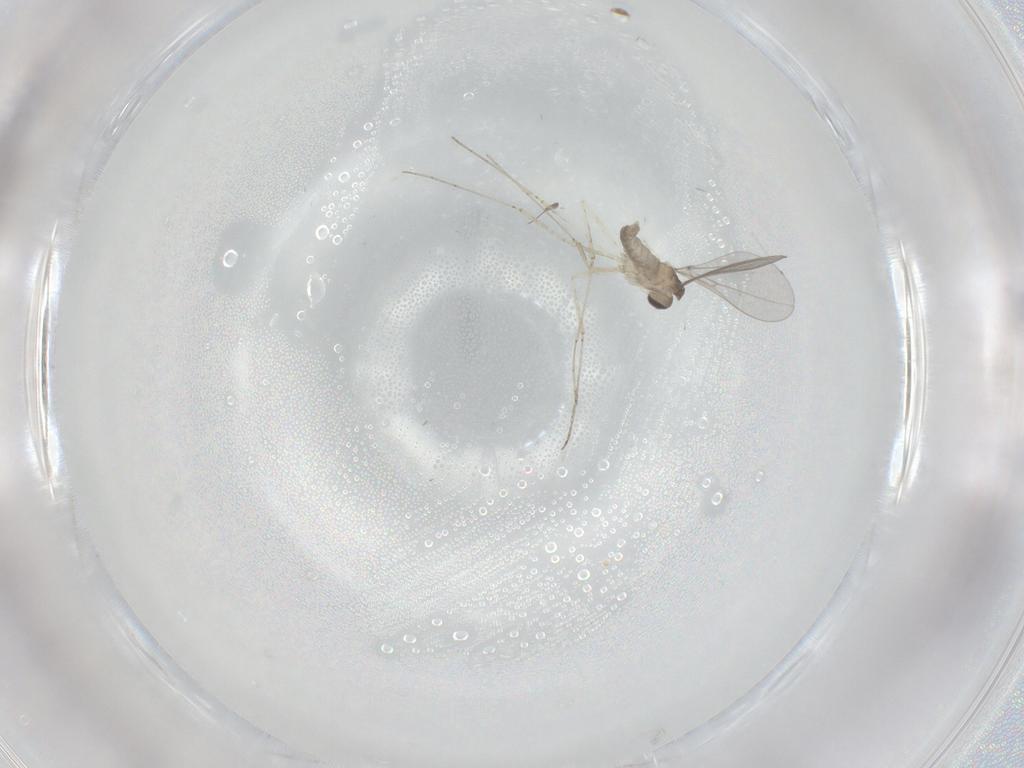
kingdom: Animalia
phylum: Arthropoda
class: Insecta
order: Diptera
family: Cecidomyiidae
